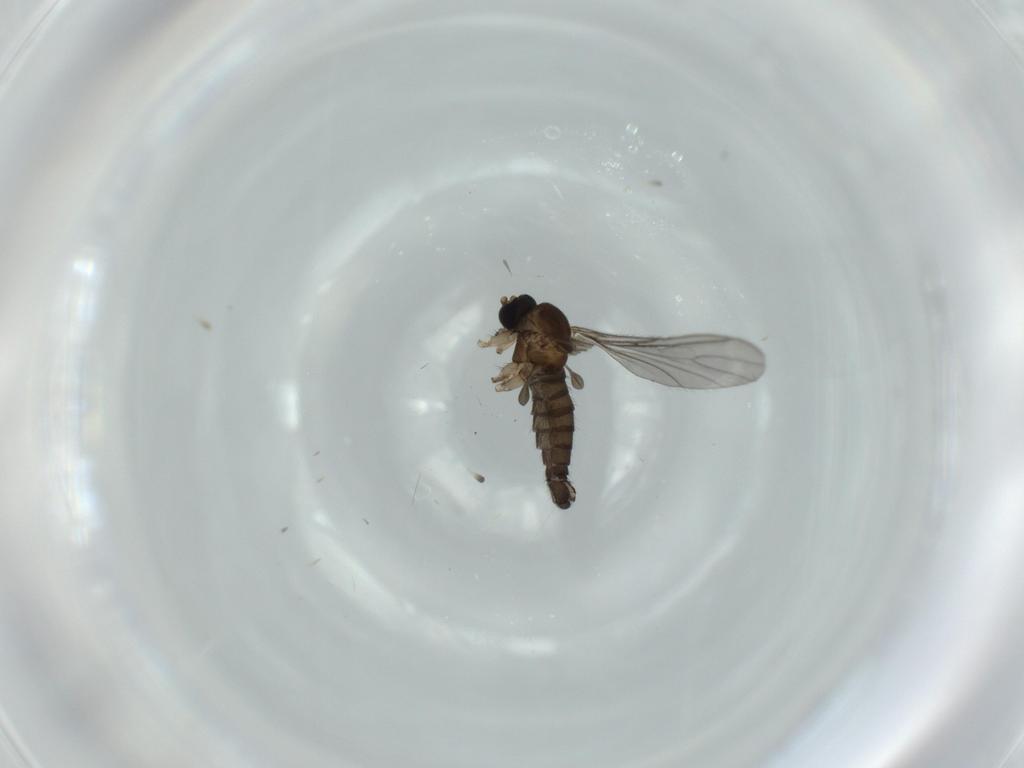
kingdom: Animalia
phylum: Arthropoda
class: Insecta
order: Diptera
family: Sciaridae
